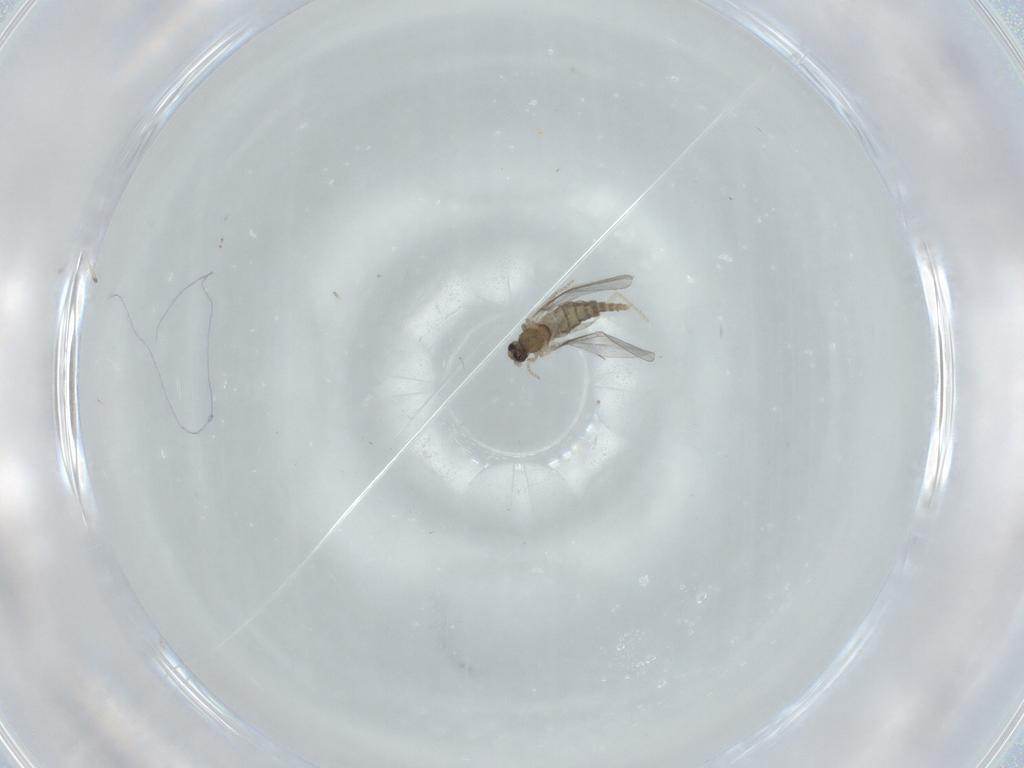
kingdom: Animalia
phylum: Arthropoda
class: Insecta
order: Diptera
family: Cecidomyiidae
